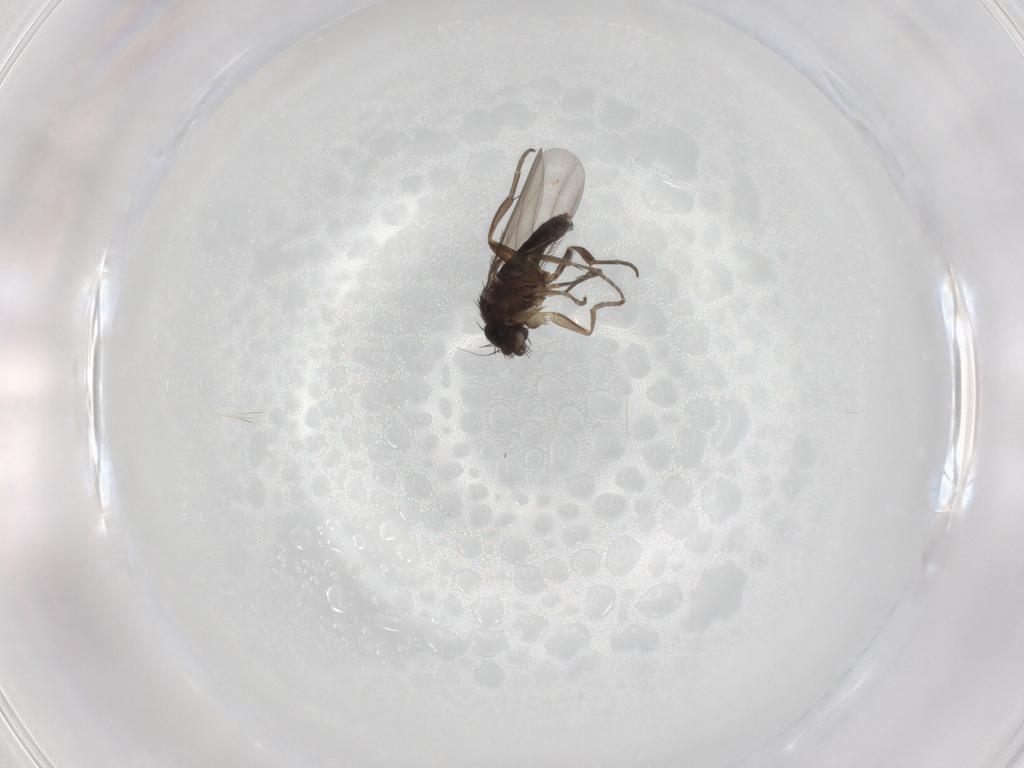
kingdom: Animalia
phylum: Arthropoda
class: Insecta
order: Diptera
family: Phoridae
